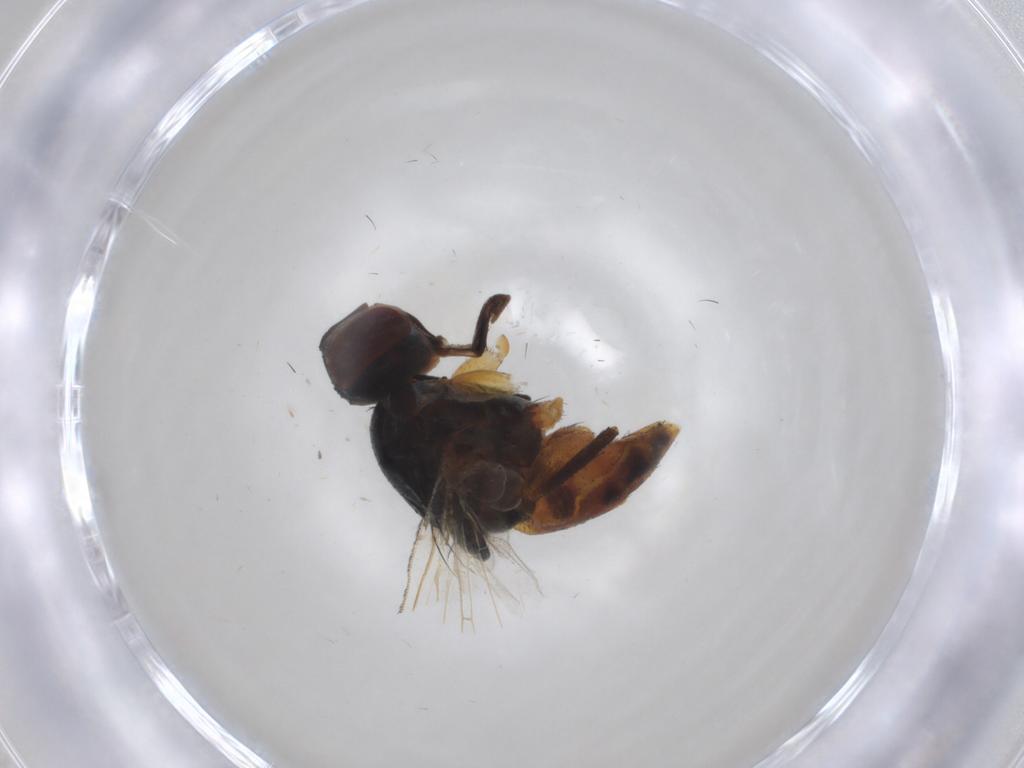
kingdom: Animalia
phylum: Arthropoda
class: Insecta
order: Diptera
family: Muscidae
